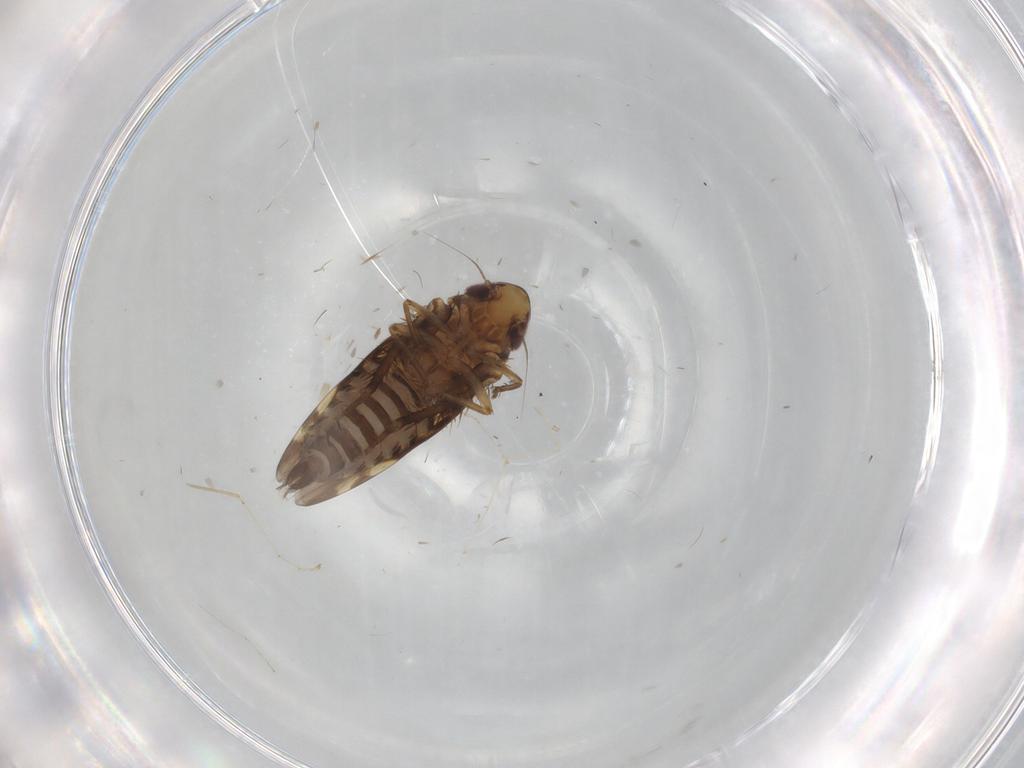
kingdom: Animalia
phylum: Arthropoda
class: Insecta
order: Hemiptera
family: Cicadellidae
